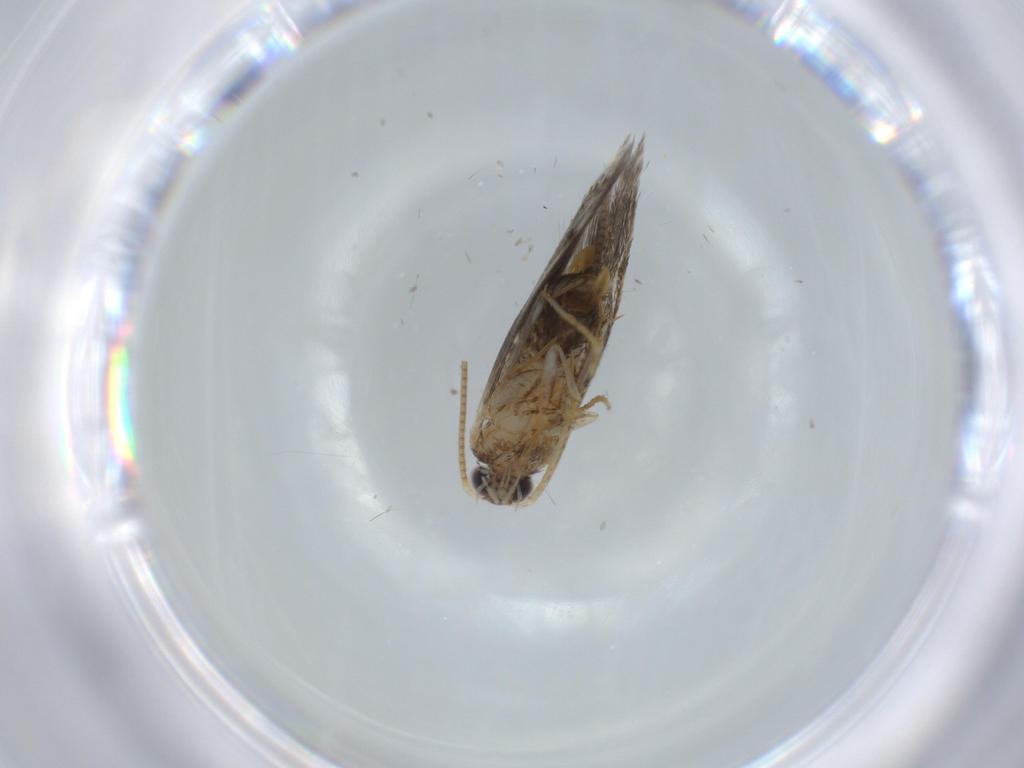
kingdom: Animalia
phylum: Arthropoda
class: Insecta
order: Lepidoptera
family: Tineidae
